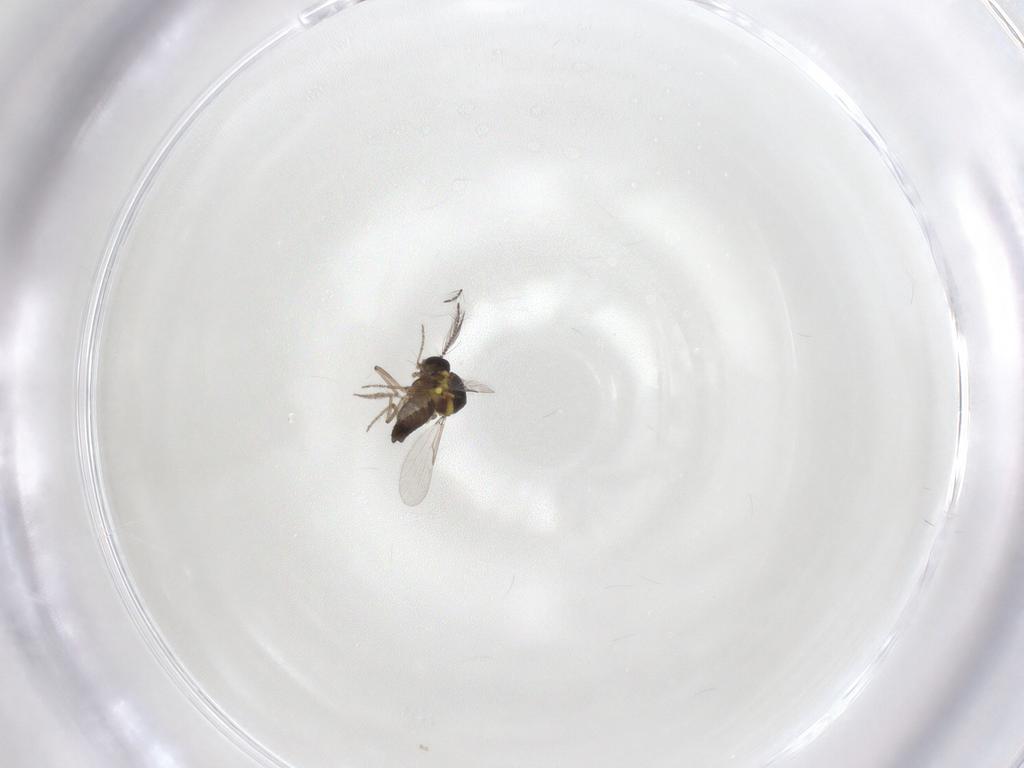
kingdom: Animalia
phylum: Arthropoda
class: Insecta
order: Diptera
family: Ceratopogonidae
